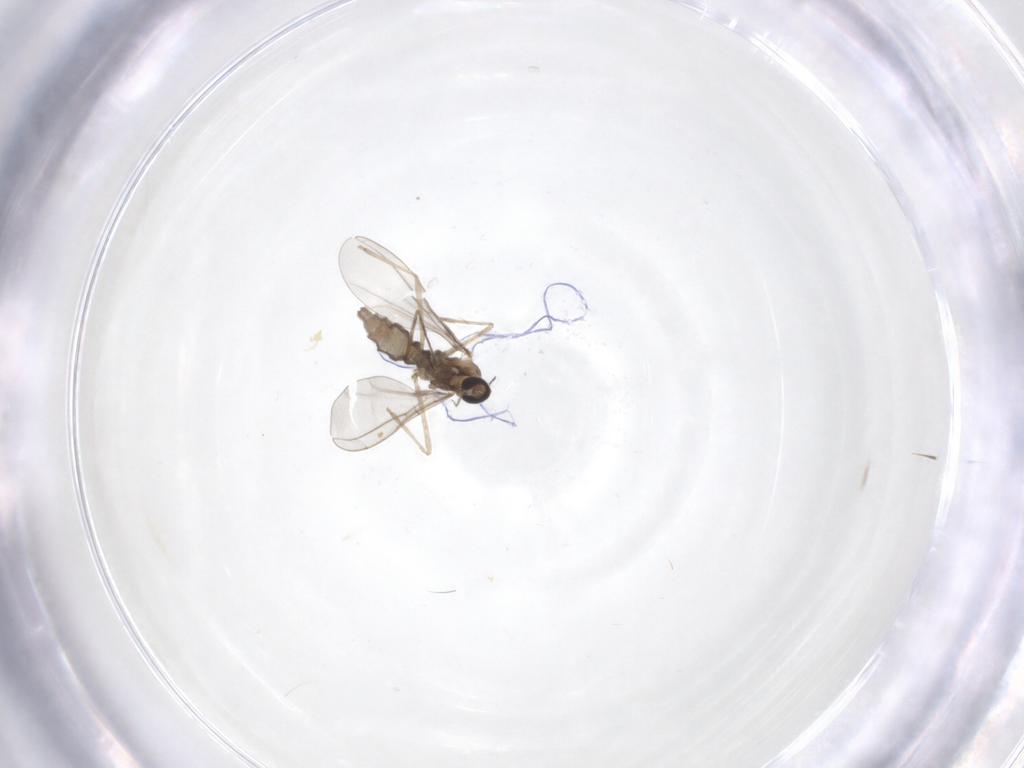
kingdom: Animalia
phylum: Arthropoda
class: Insecta
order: Diptera
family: Cecidomyiidae
